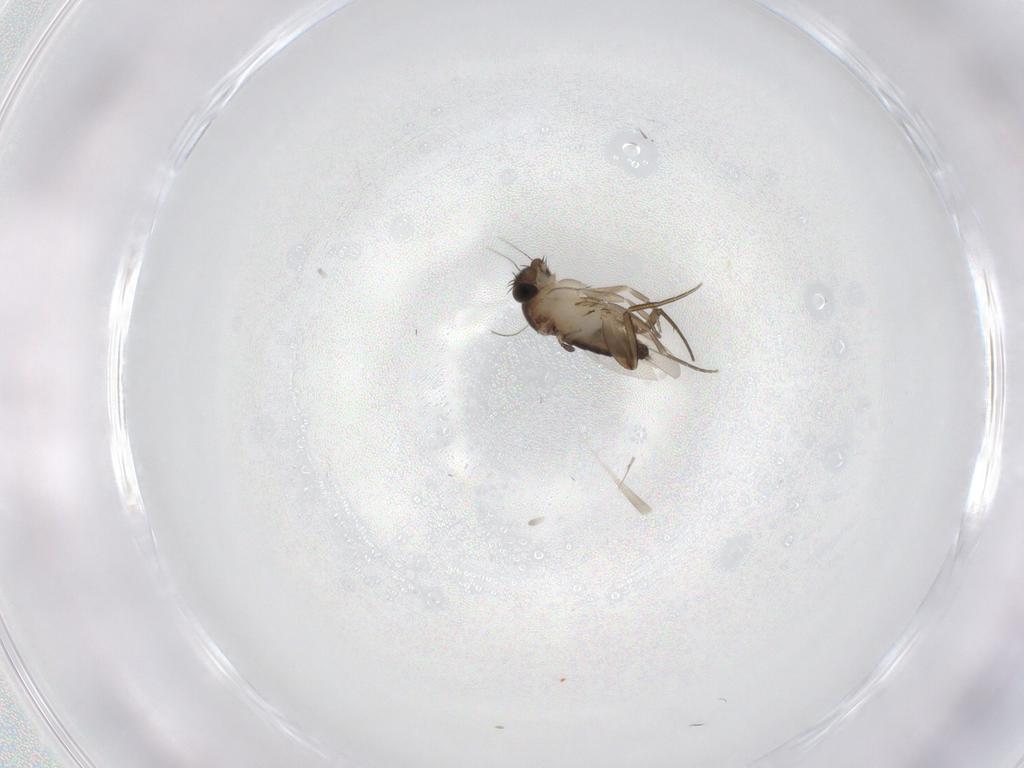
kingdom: Animalia
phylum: Arthropoda
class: Insecta
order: Diptera
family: Phoridae
